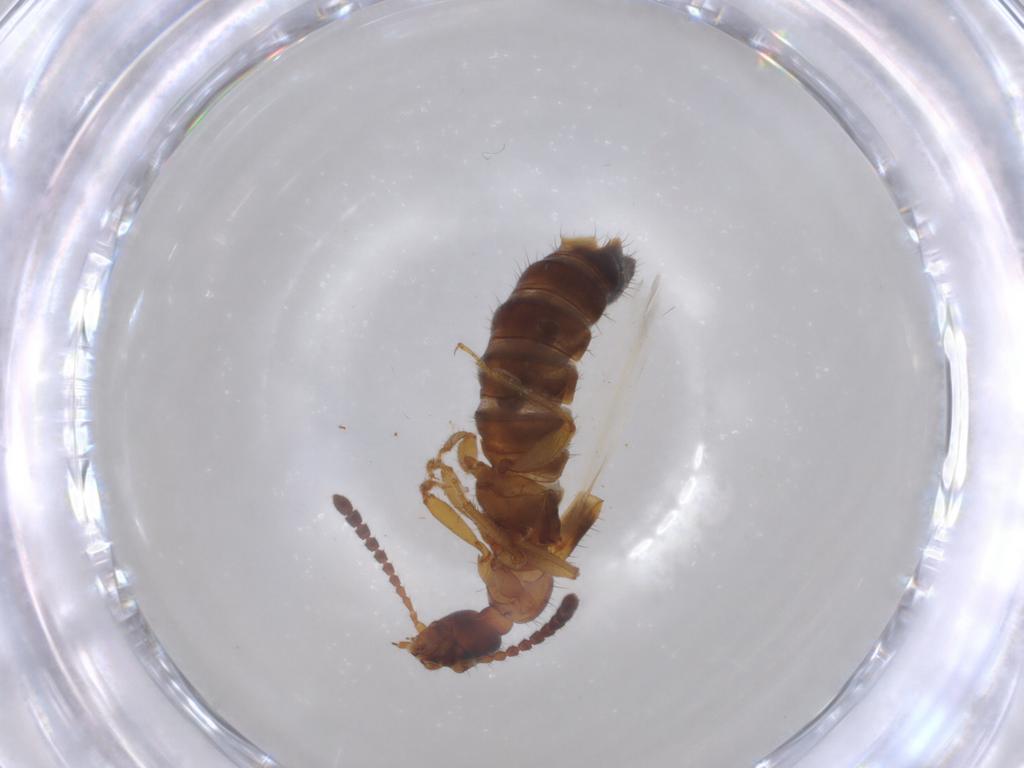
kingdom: Animalia
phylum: Arthropoda
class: Insecta
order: Coleoptera
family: Staphylinidae
